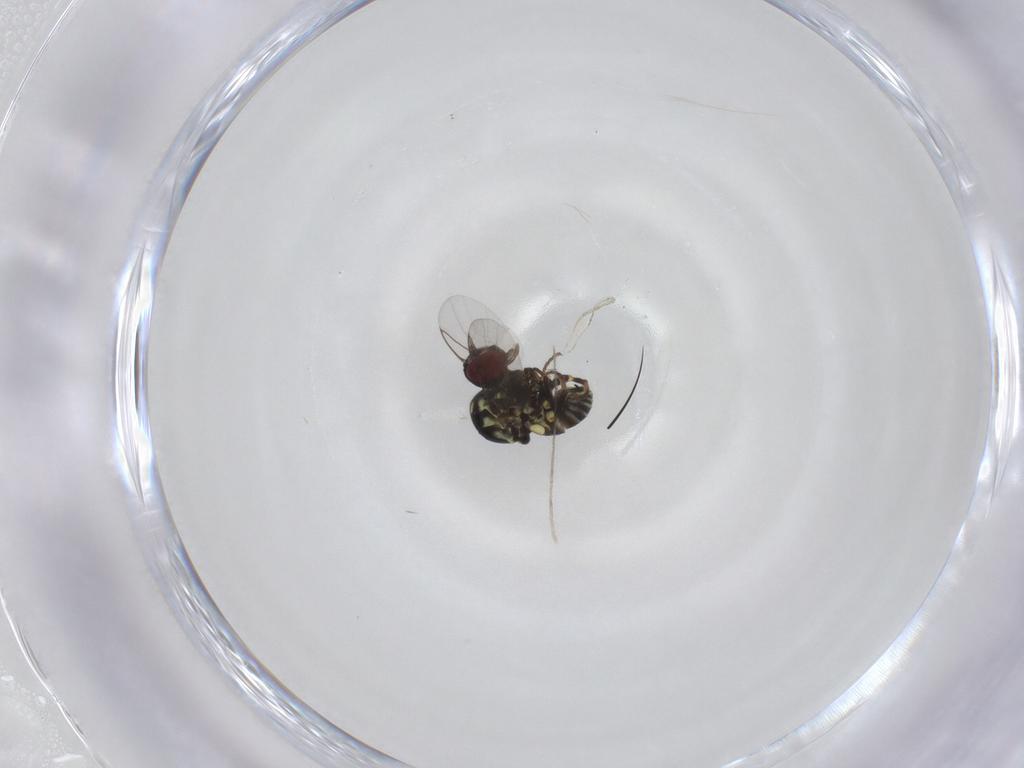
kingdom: Animalia
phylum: Arthropoda
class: Insecta
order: Diptera
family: Mythicomyiidae
